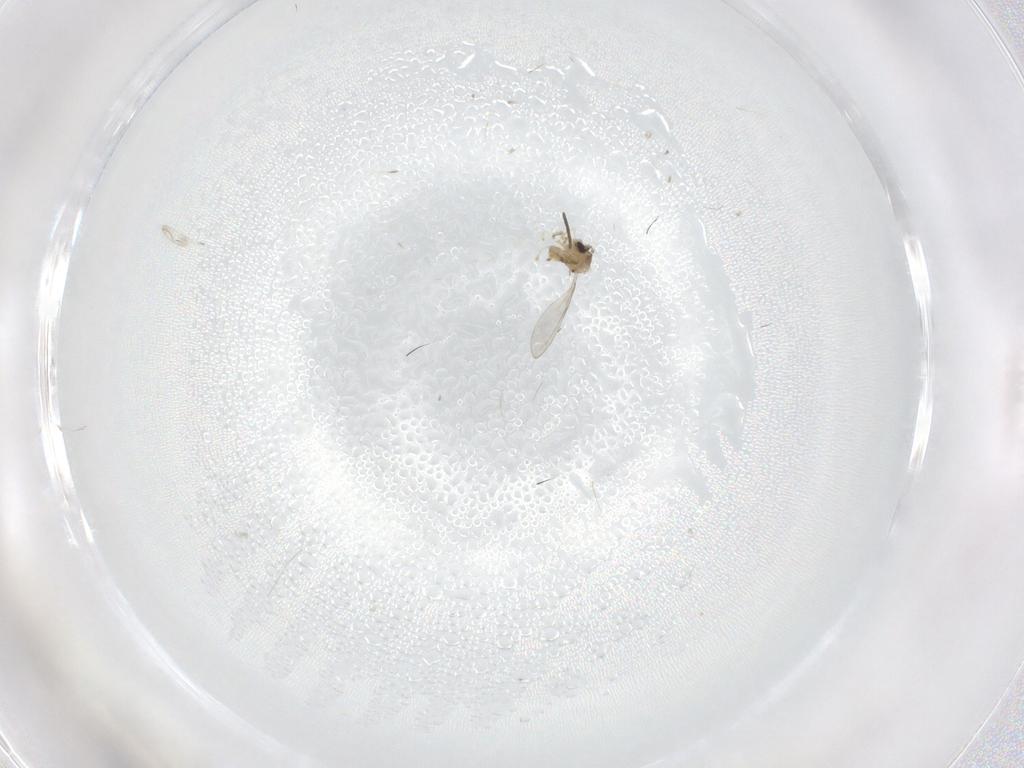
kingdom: Animalia
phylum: Arthropoda
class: Insecta
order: Diptera
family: Cecidomyiidae
